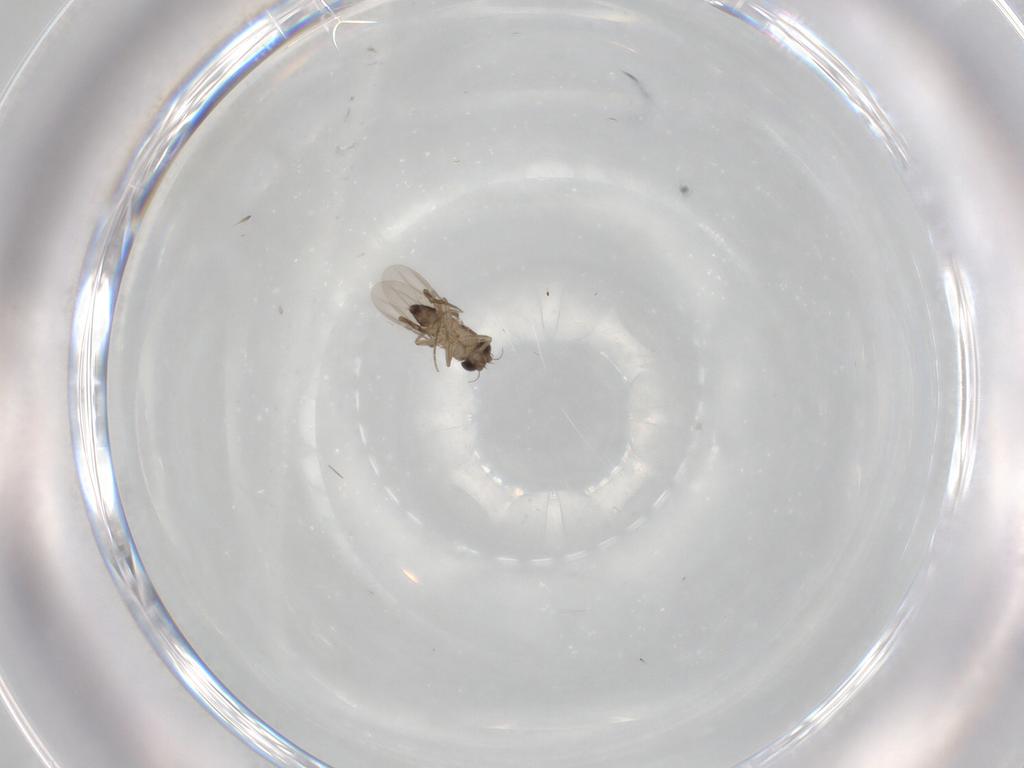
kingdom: Animalia
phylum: Arthropoda
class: Insecta
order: Diptera
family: Phoridae
